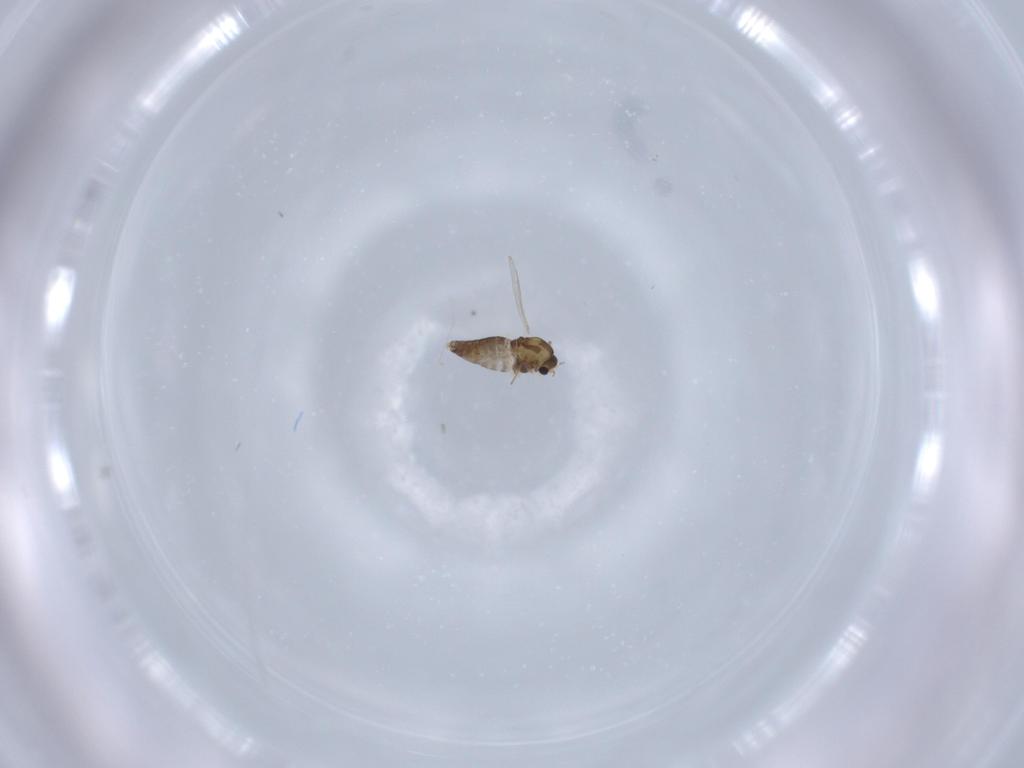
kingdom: Animalia
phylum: Arthropoda
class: Insecta
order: Diptera
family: Chironomidae
